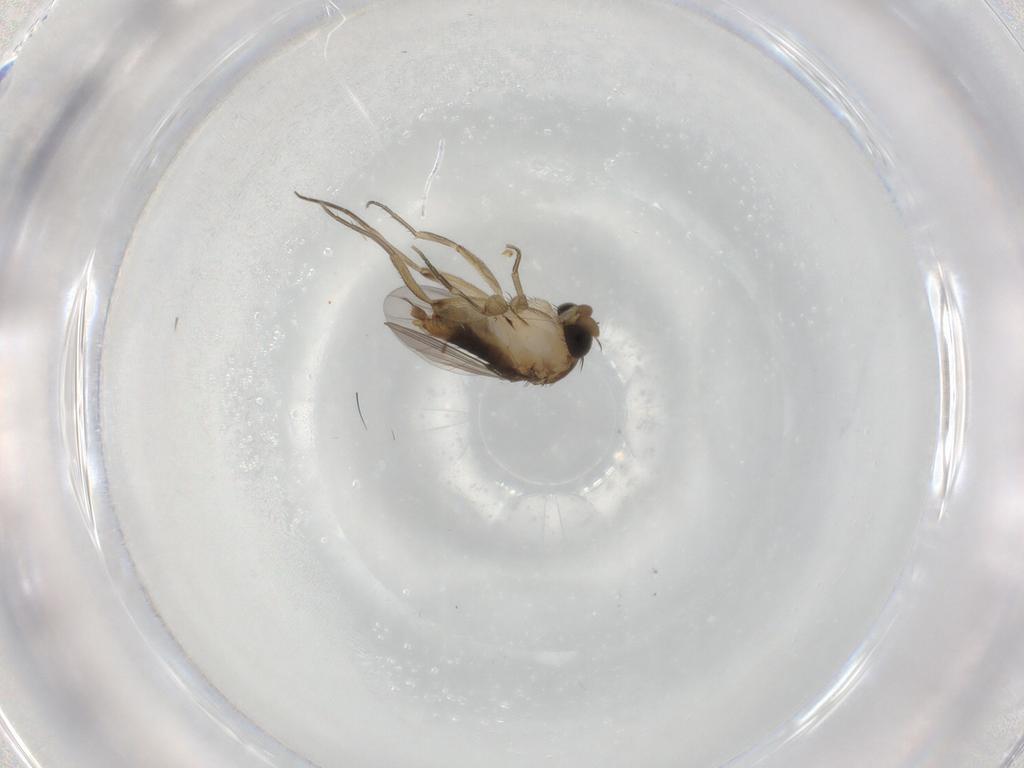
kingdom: Animalia
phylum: Arthropoda
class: Insecta
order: Diptera
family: Phoridae
